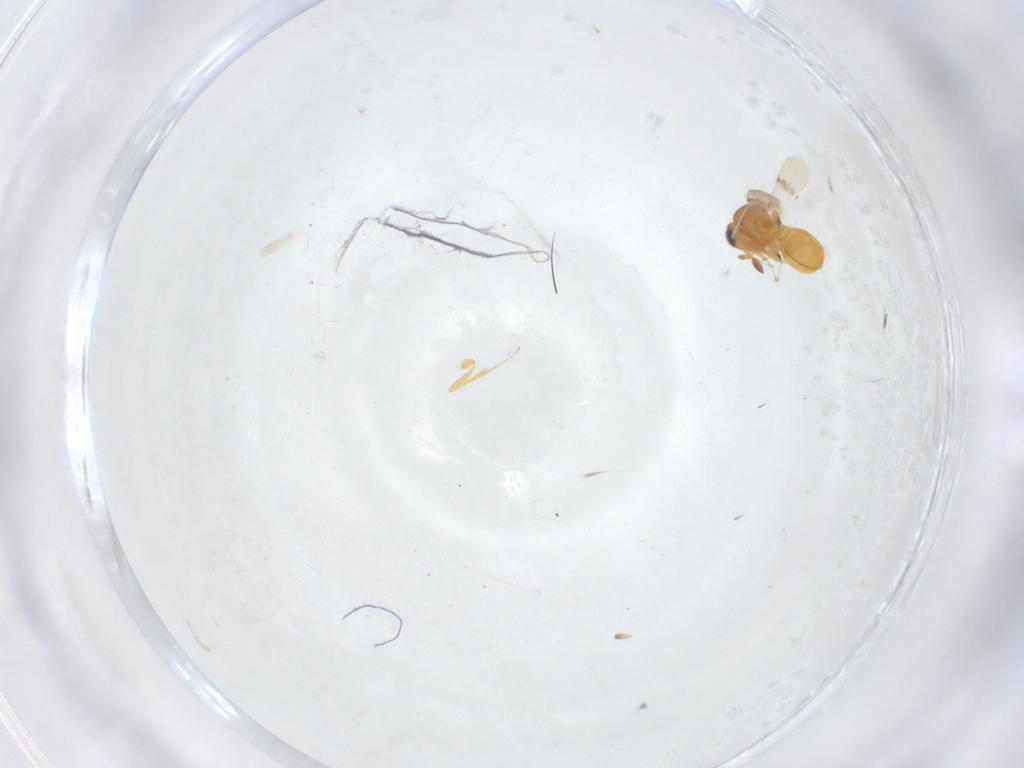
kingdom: Animalia
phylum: Arthropoda
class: Insecta
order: Hymenoptera
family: Scelionidae
